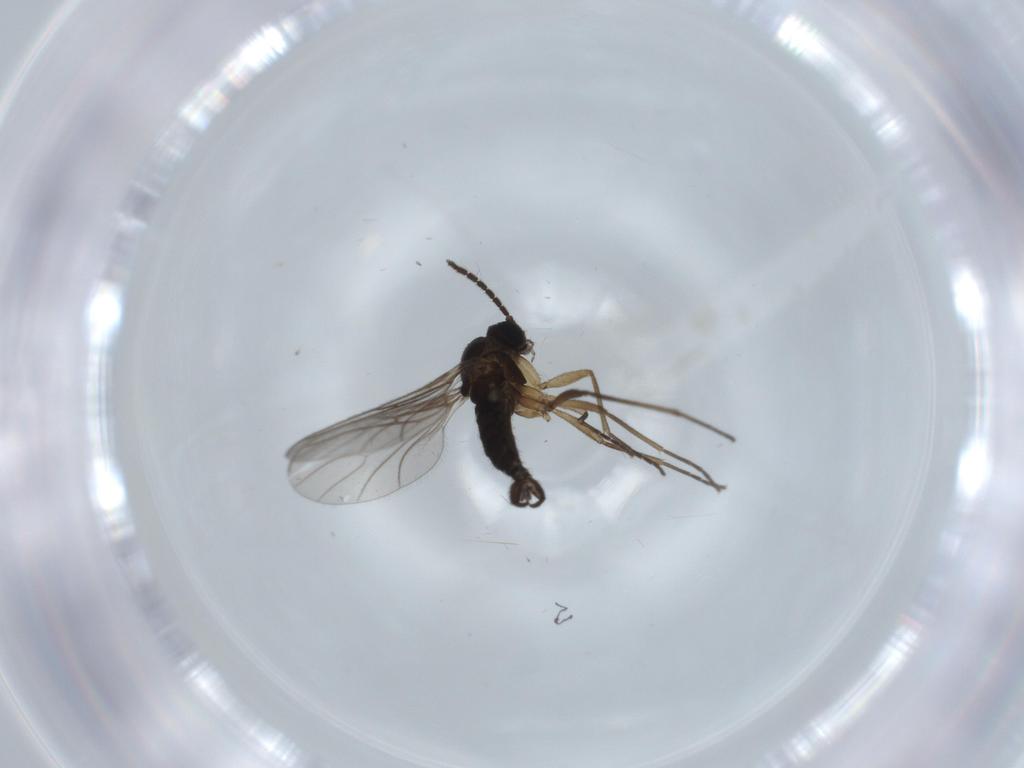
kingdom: Animalia
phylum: Arthropoda
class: Insecta
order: Diptera
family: Sciaridae
